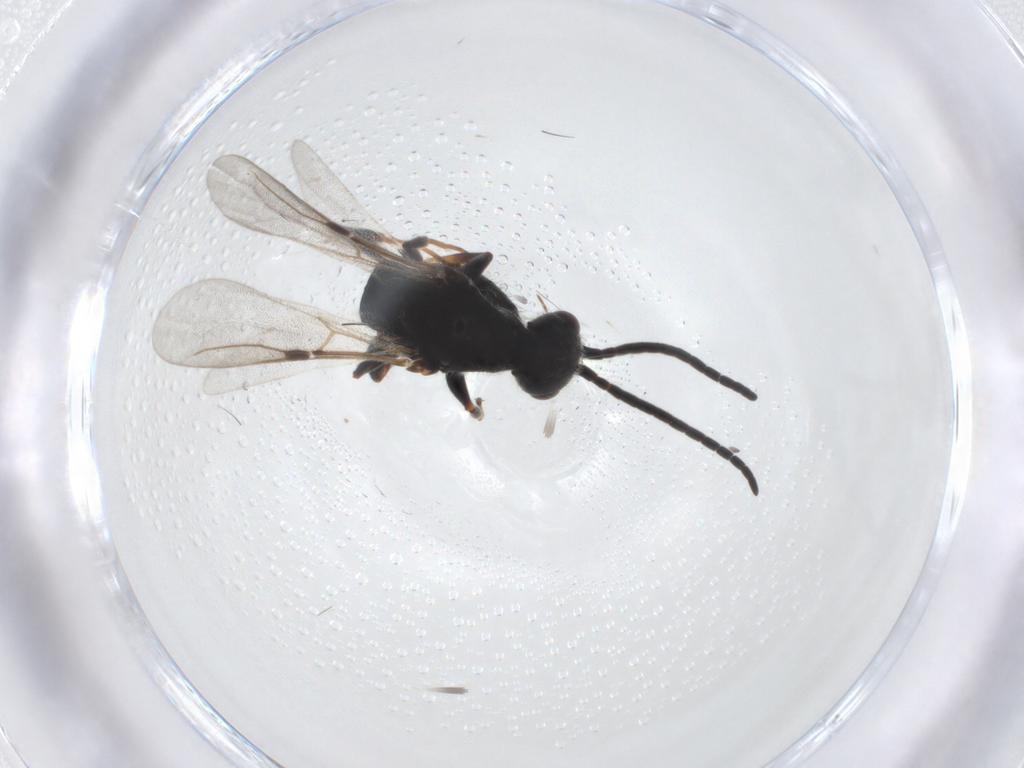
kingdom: Animalia
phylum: Arthropoda
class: Insecta
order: Hymenoptera
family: Bethylidae
